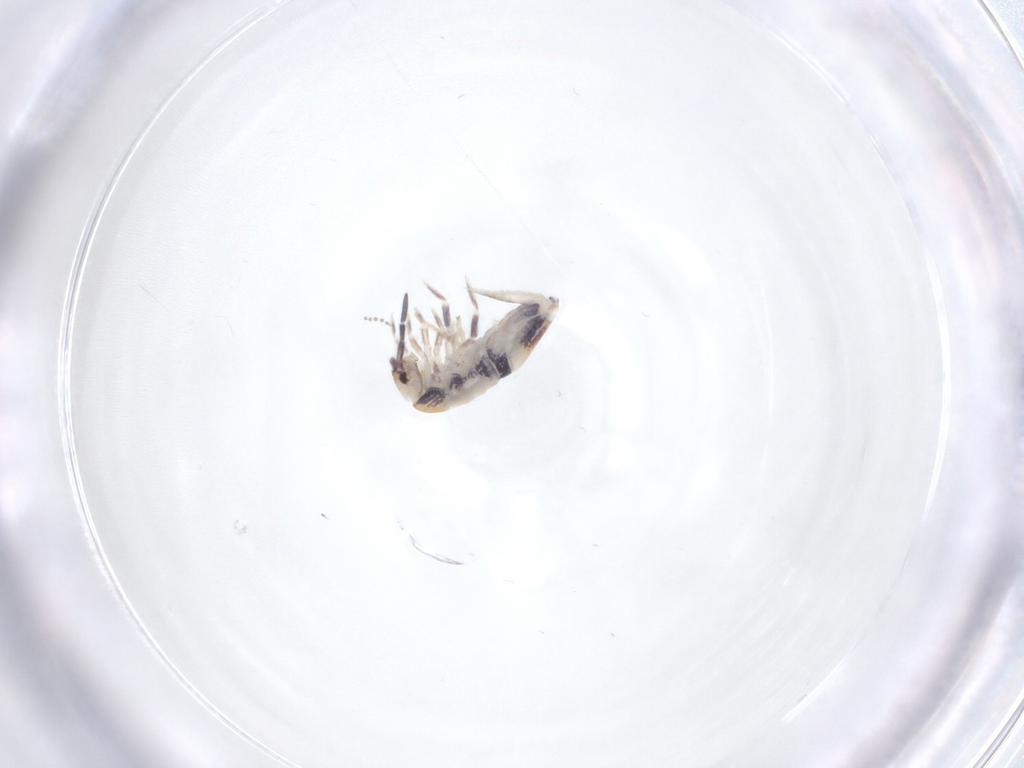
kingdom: Animalia
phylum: Arthropoda
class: Collembola
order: Entomobryomorpha
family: Entomobryidae
